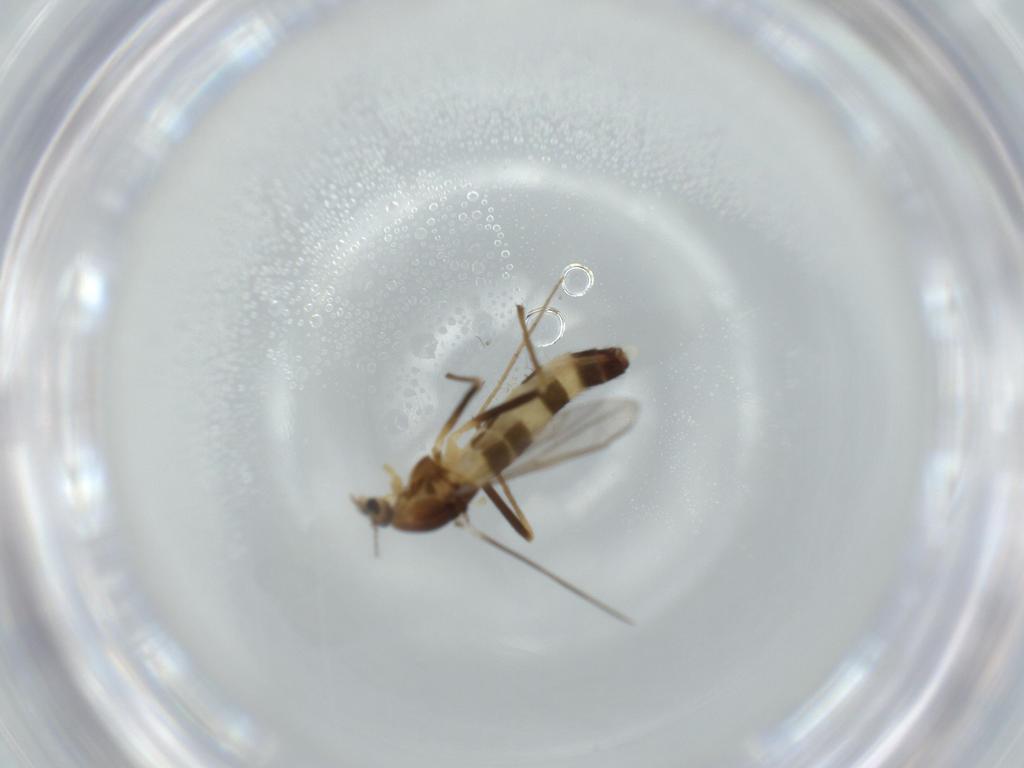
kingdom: Animalia
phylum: Arthropoda
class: Insecta
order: Diptera
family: Chironomidae
